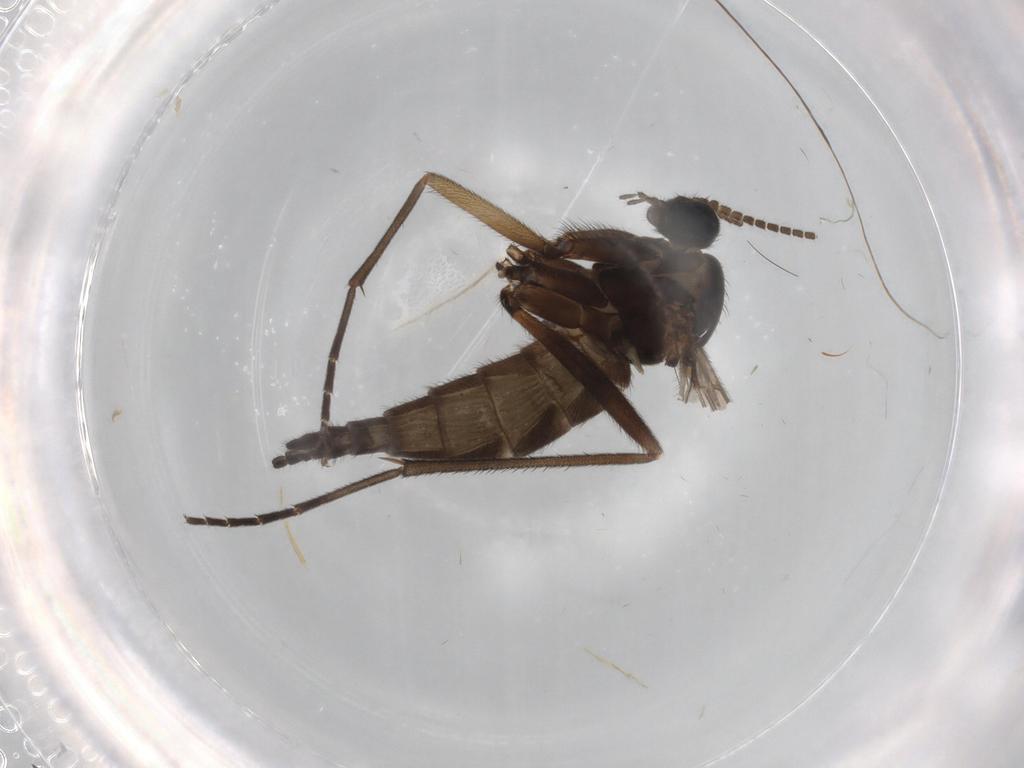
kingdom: Animalia
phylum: Arthropoda
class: Insecta
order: Diptera
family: Sciaridae
